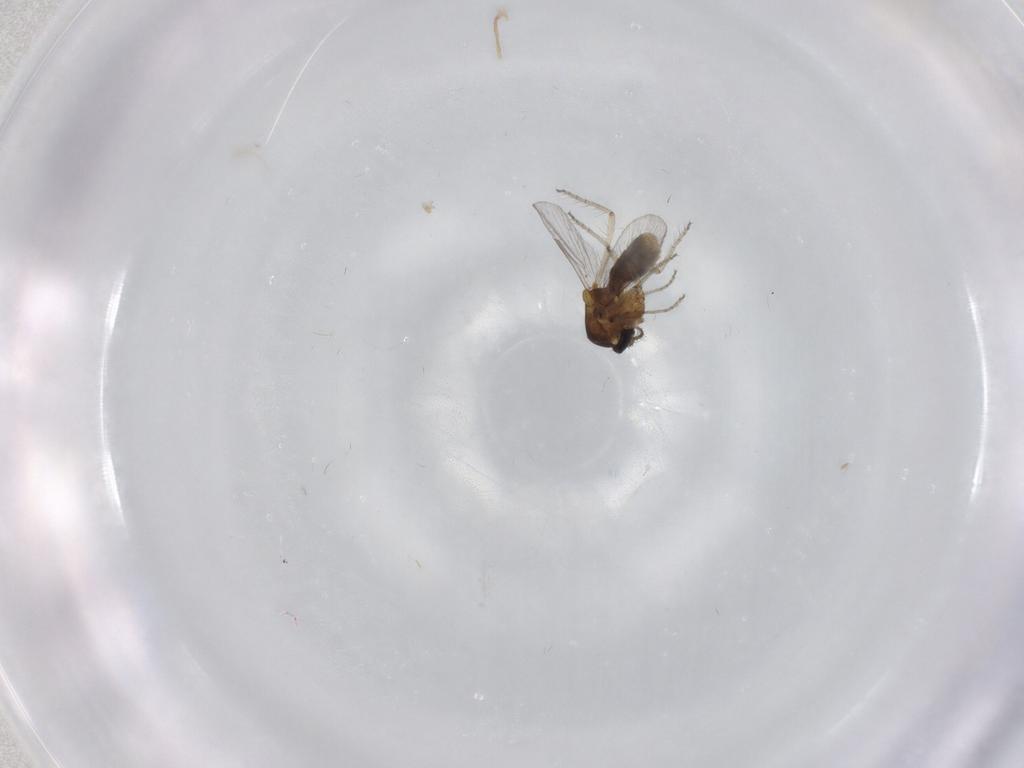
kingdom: Animalia
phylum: Arthropoda
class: Insecta
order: Diptera
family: Ceratopogonidae
